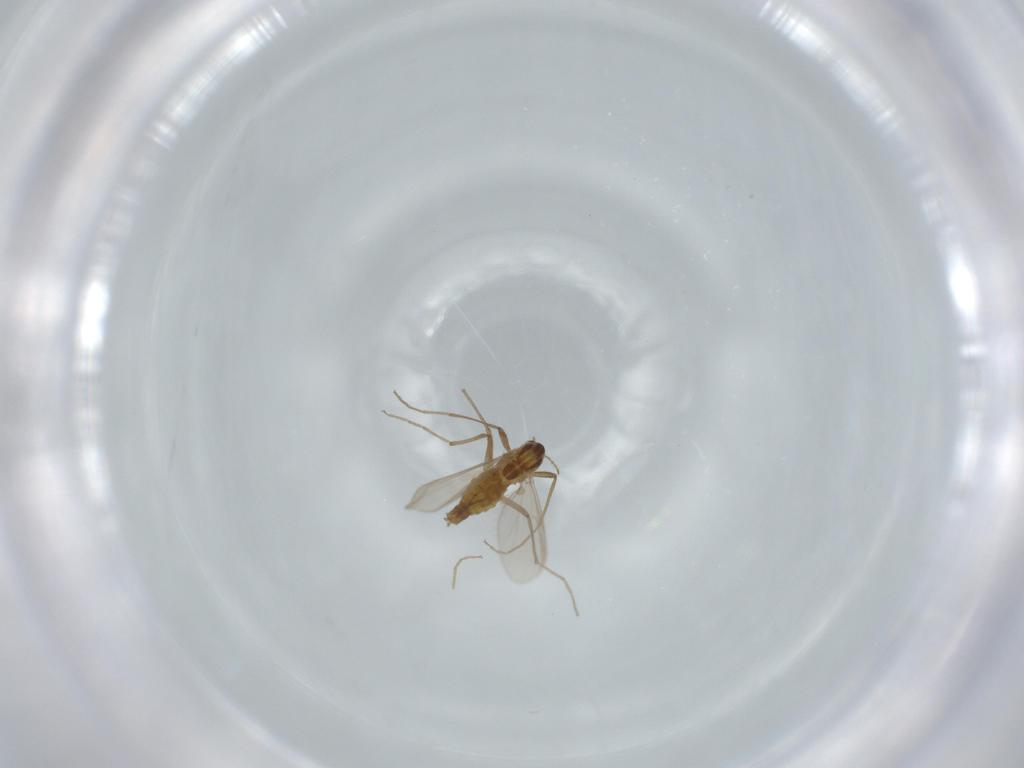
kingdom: Animalia
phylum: Arthropoda
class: Insecta
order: Diptera
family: Chironomidae
